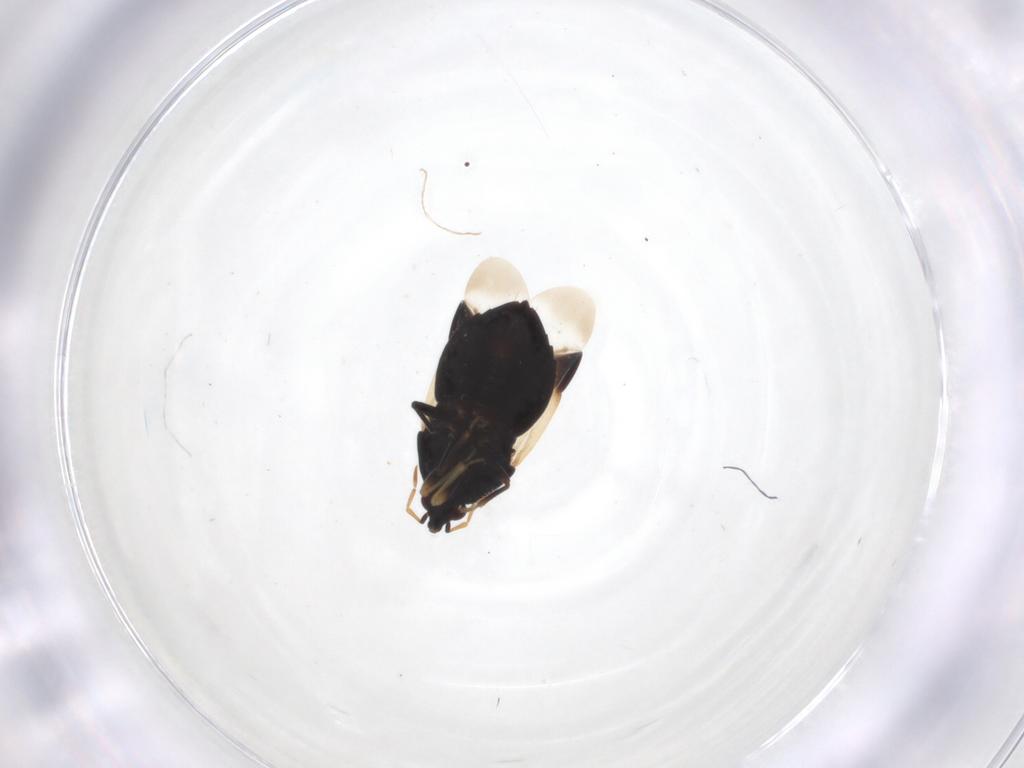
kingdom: Animalia
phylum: Arthropoda
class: Insecta
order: Hemiptera
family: Anthocoridae
